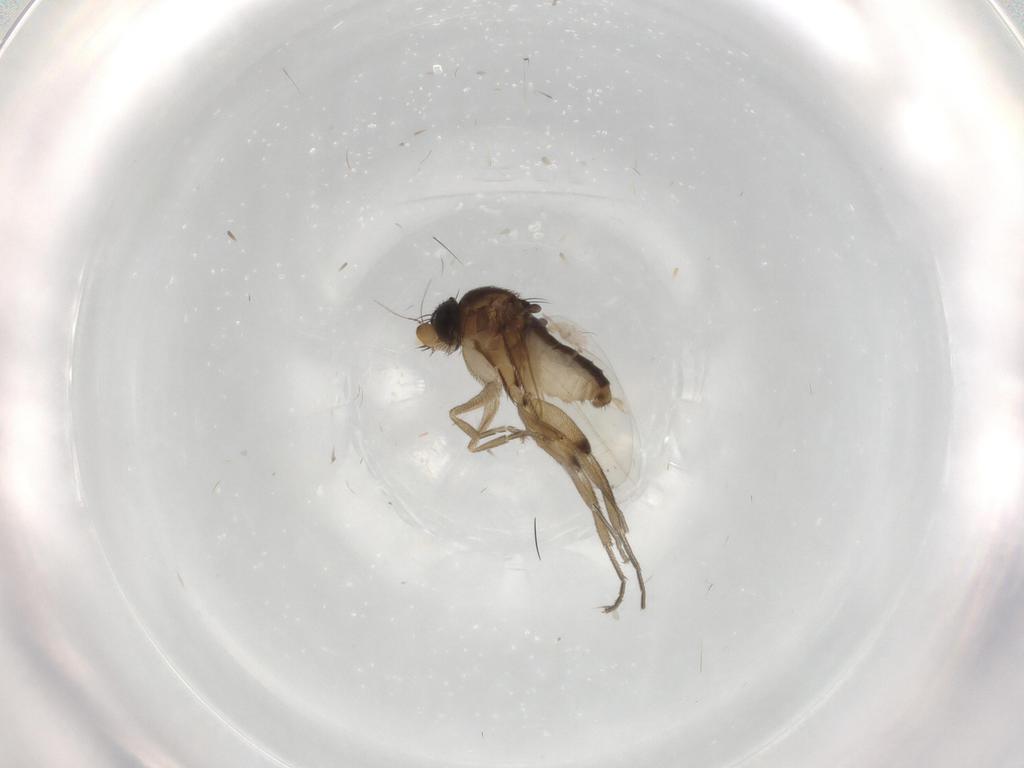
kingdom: Animalia
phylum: Arthropoda
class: Insecta
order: Diptera
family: Phoridae
